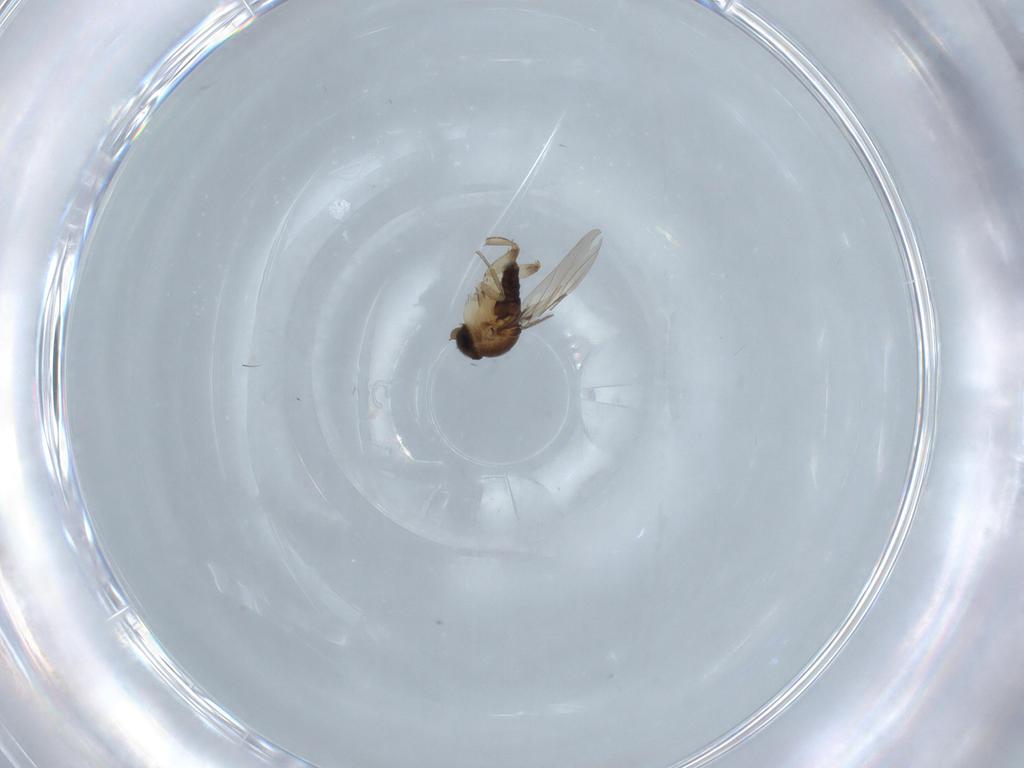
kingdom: Animalia
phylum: Arthropoda
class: Insecta
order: Diptera
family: Phoridae
